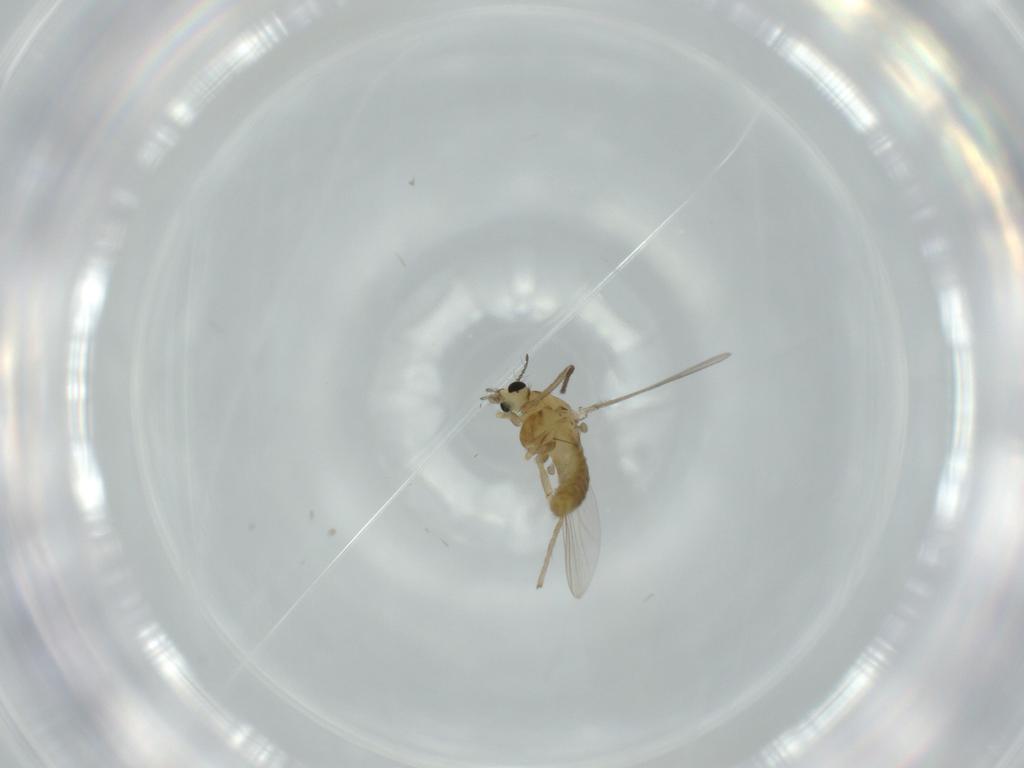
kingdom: Animalia
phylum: Arthropoda
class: Insecta
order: Diptera
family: Chironomidae
